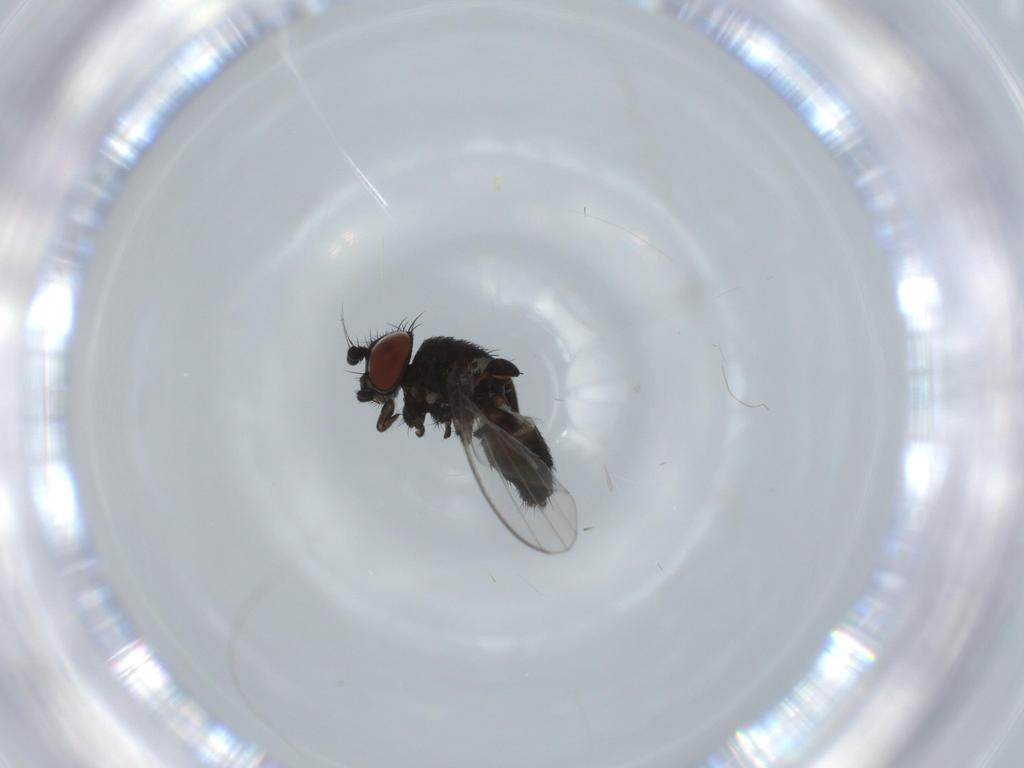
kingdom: Animalia
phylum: Arthropoda
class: Insecta
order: Diptera
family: Milichiidae
